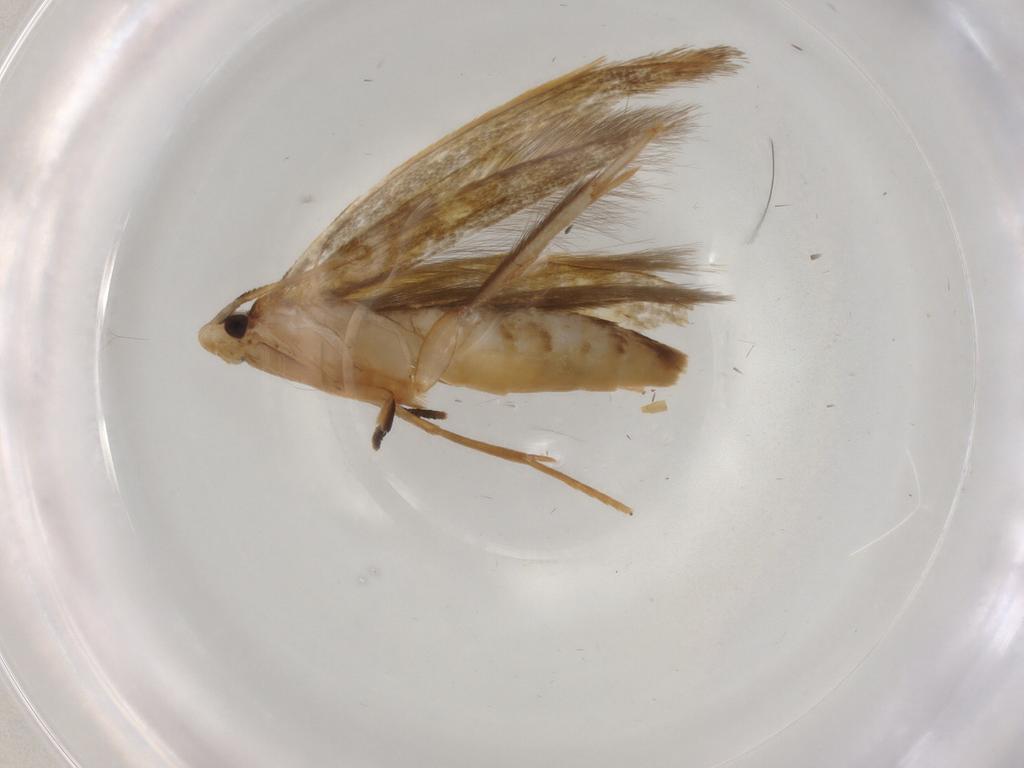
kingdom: Animalia
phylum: Arthropoda
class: Insecta
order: Lepidoptera
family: Tineidae
